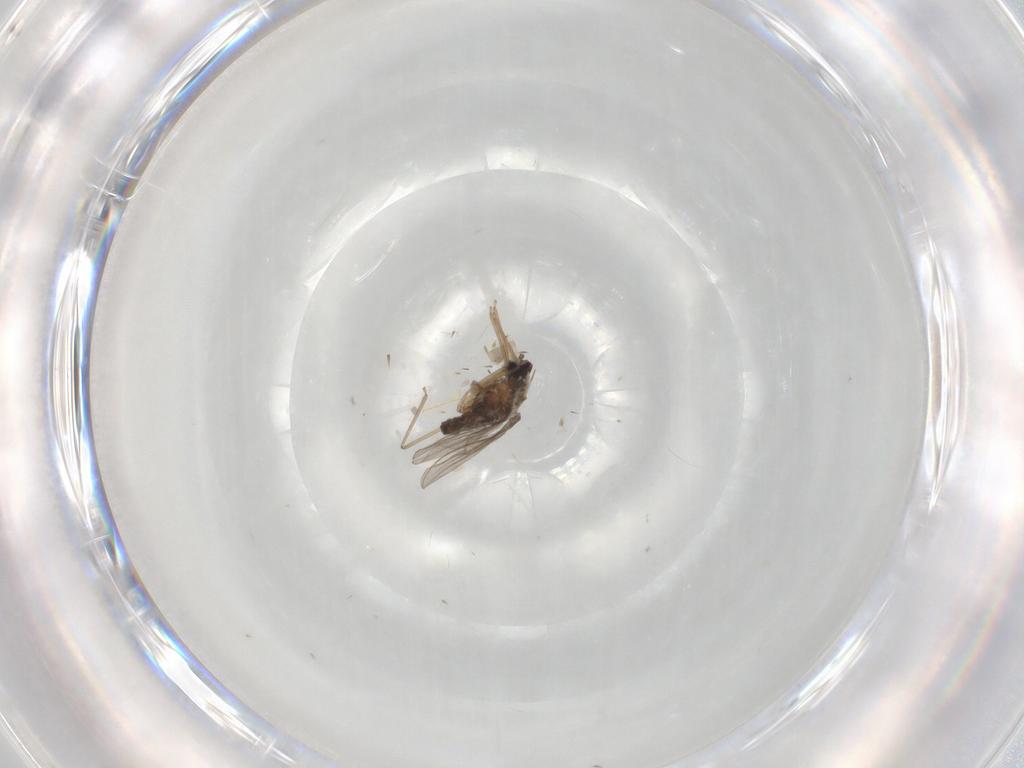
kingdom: Animalia
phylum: Arthropoda
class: Insecta
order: Diptera
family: Cecidomyiidae
